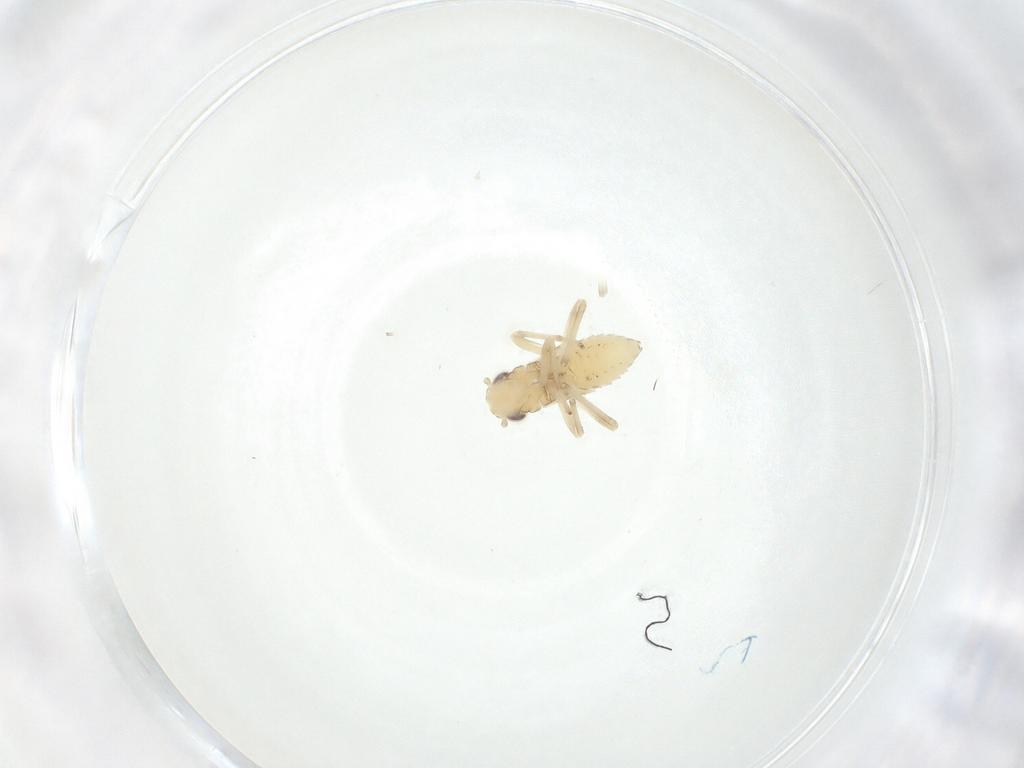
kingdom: Animalia
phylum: Arthropoda
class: Insecta
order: Hemiptera
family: Cicadellidae
